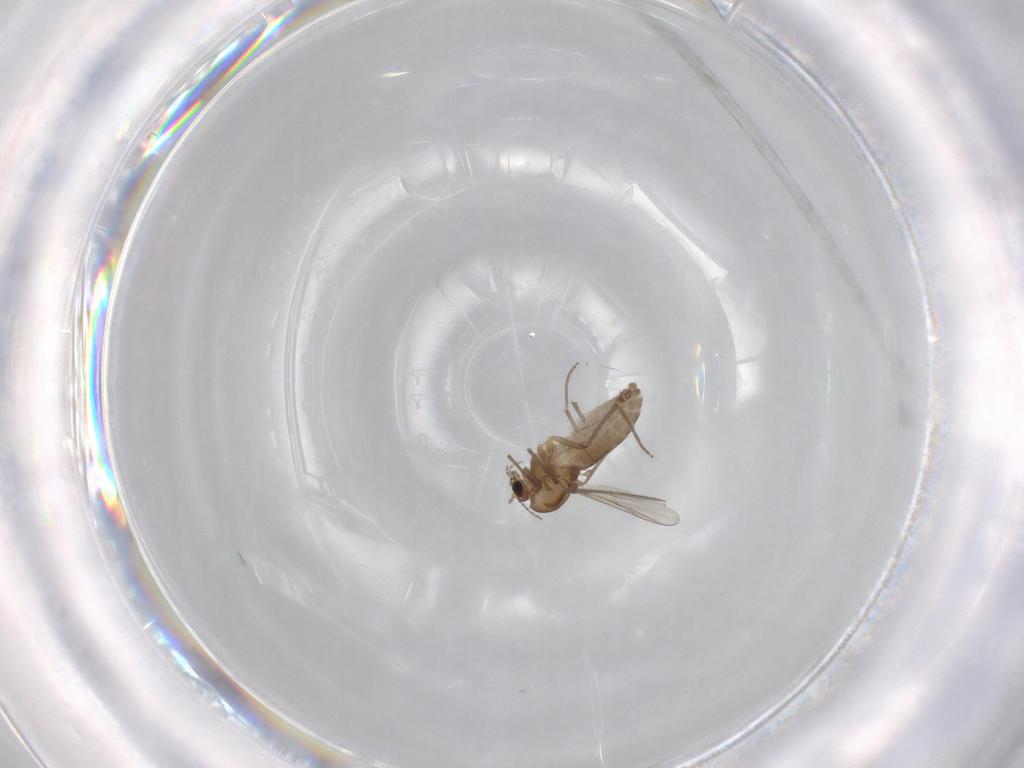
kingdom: Animalia
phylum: Arthropoda
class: Insecta
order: Diptera
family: Chironomidae
